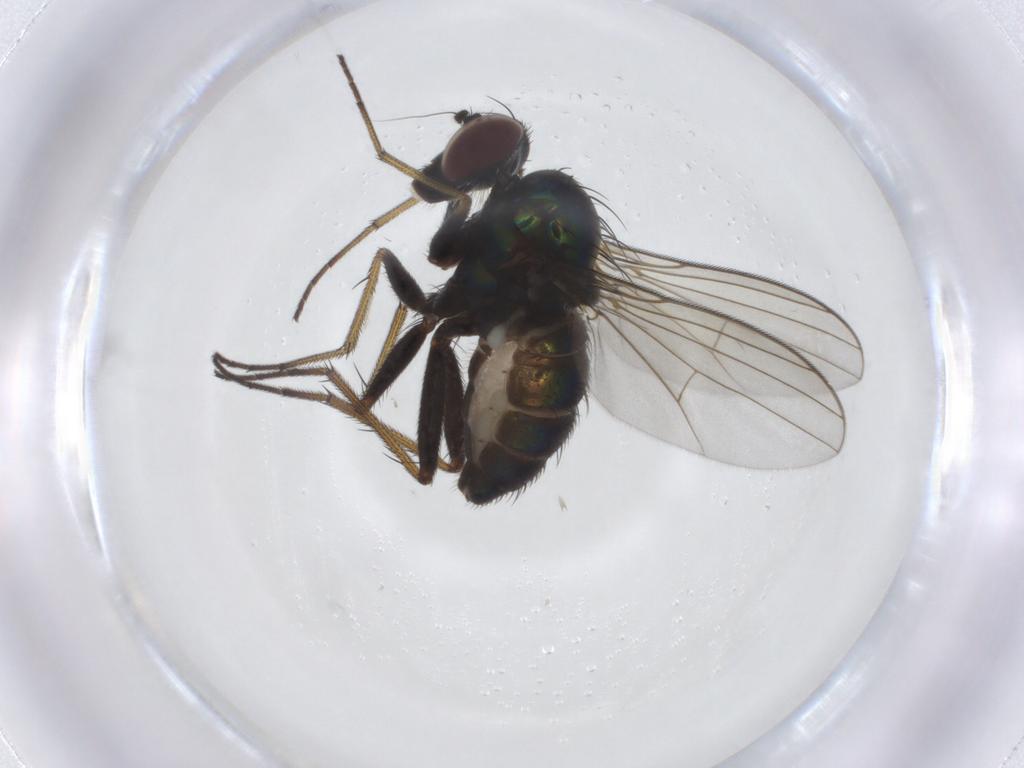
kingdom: Animalia
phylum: Arthropoda
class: Insecta
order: Diptera
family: Dolichopodidae
